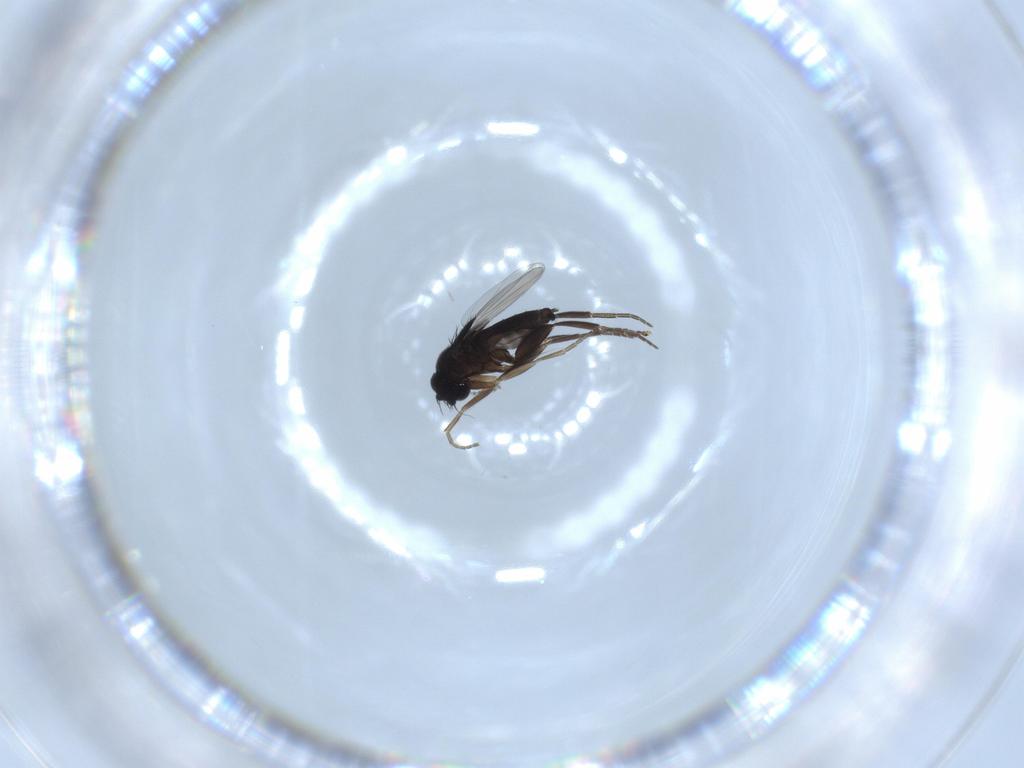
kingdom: Animalia
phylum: Arthropoda
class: Insecta
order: Diptera
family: Phoridae
